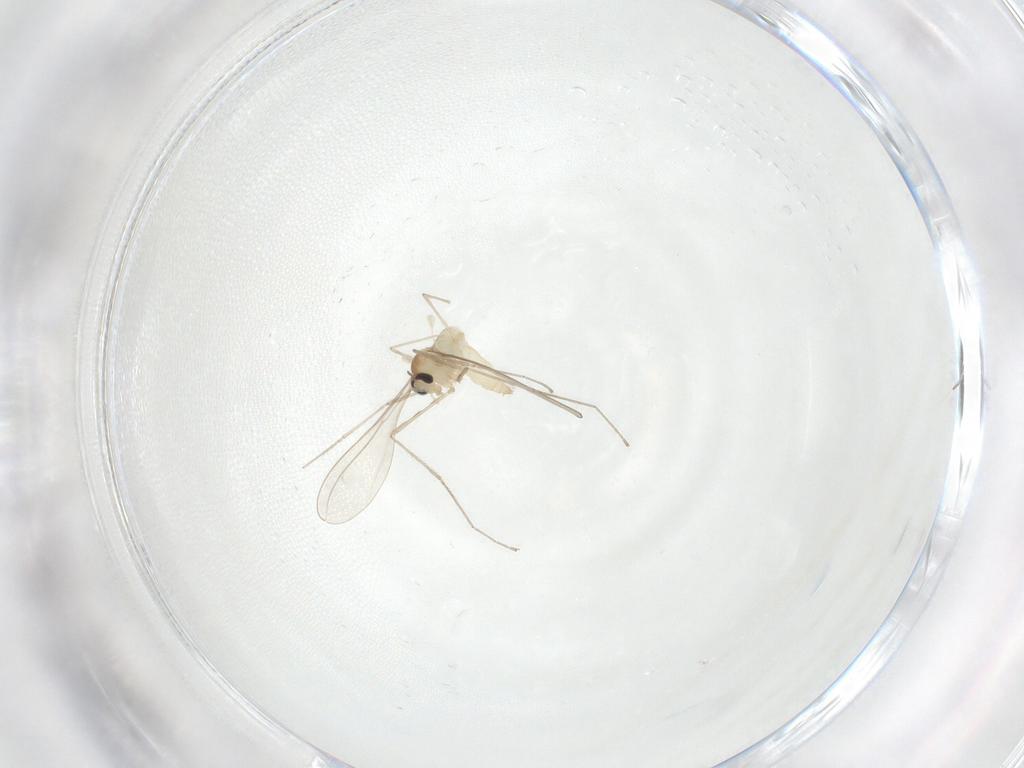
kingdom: Animalia
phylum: Arthropoda
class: Insecta
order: Diptera
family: Cecidomyiidae
